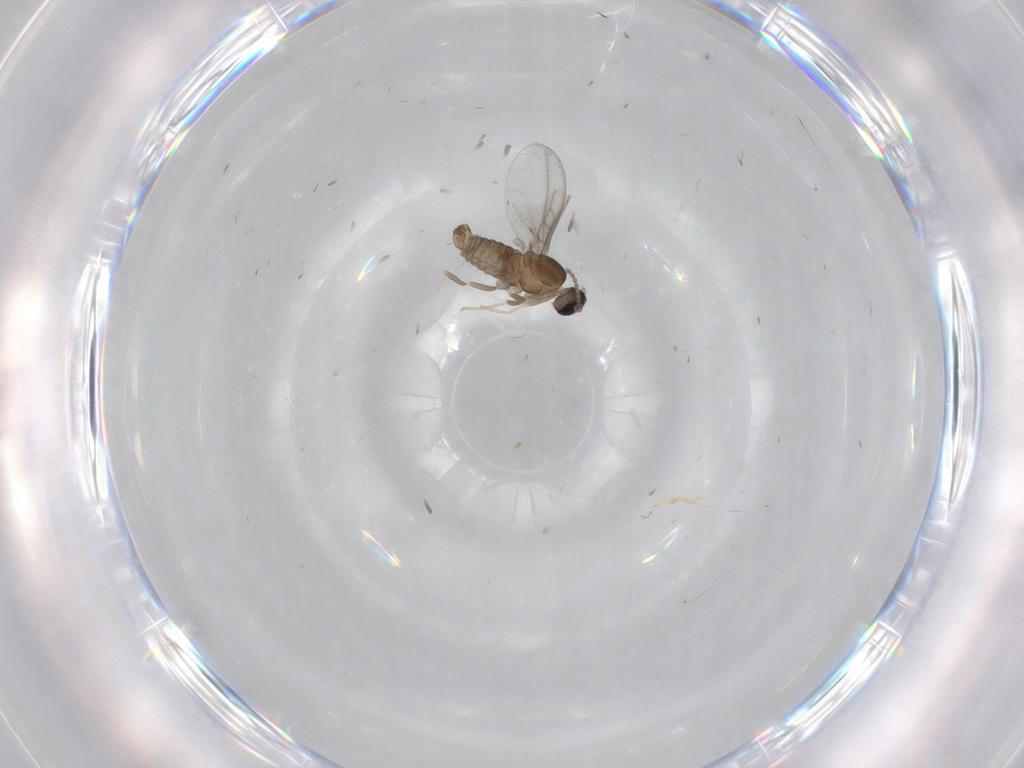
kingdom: Animalia
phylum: Arthropoda
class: Insecta
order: Diptera
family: Cecidomyiidae
